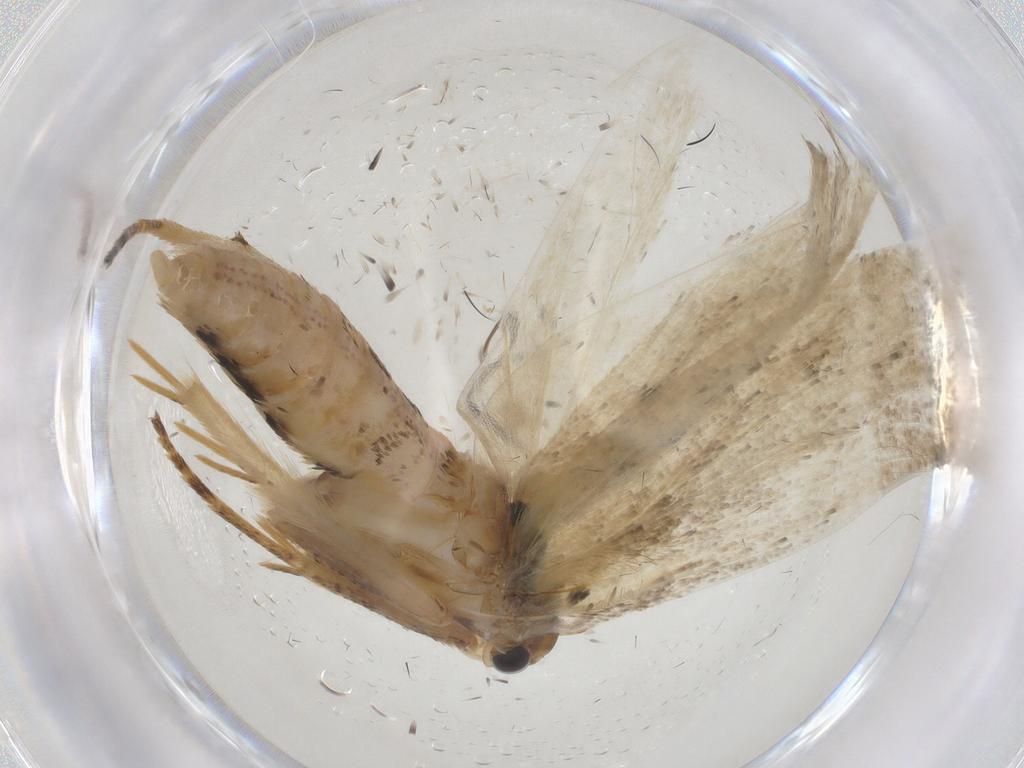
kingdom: Animalia
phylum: Arthropoda
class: Insecta
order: Lepidoptera
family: Depressariidae
